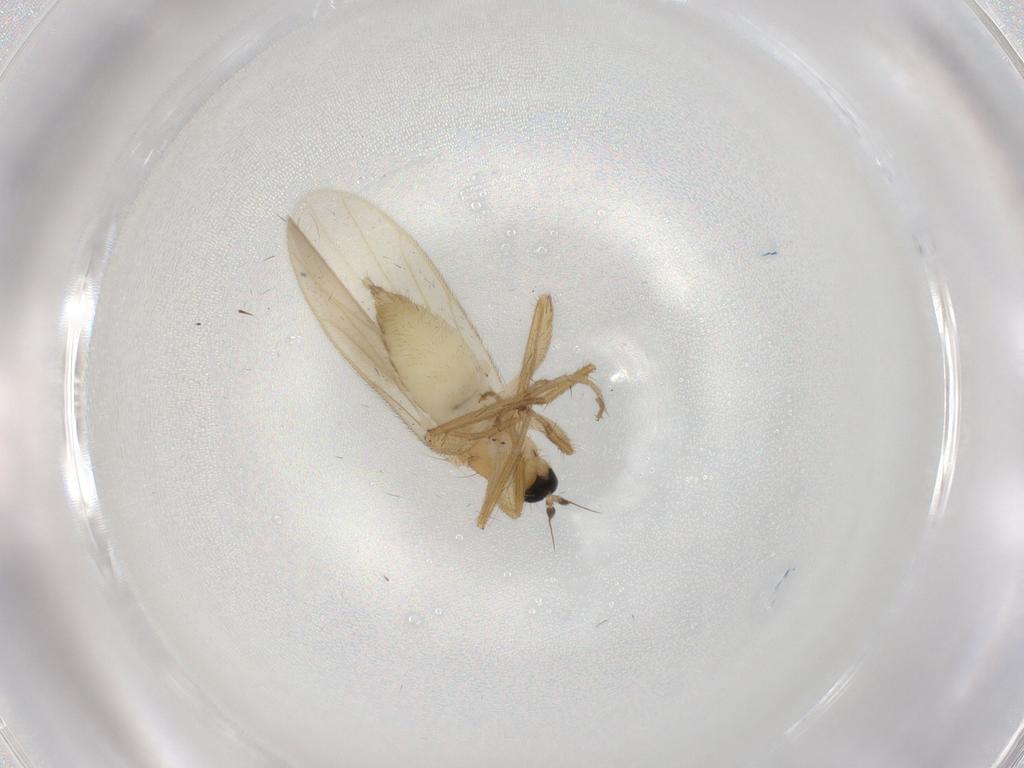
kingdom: Animalia
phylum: Arthropoda
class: Insecta
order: Diptera
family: Hybotidae
